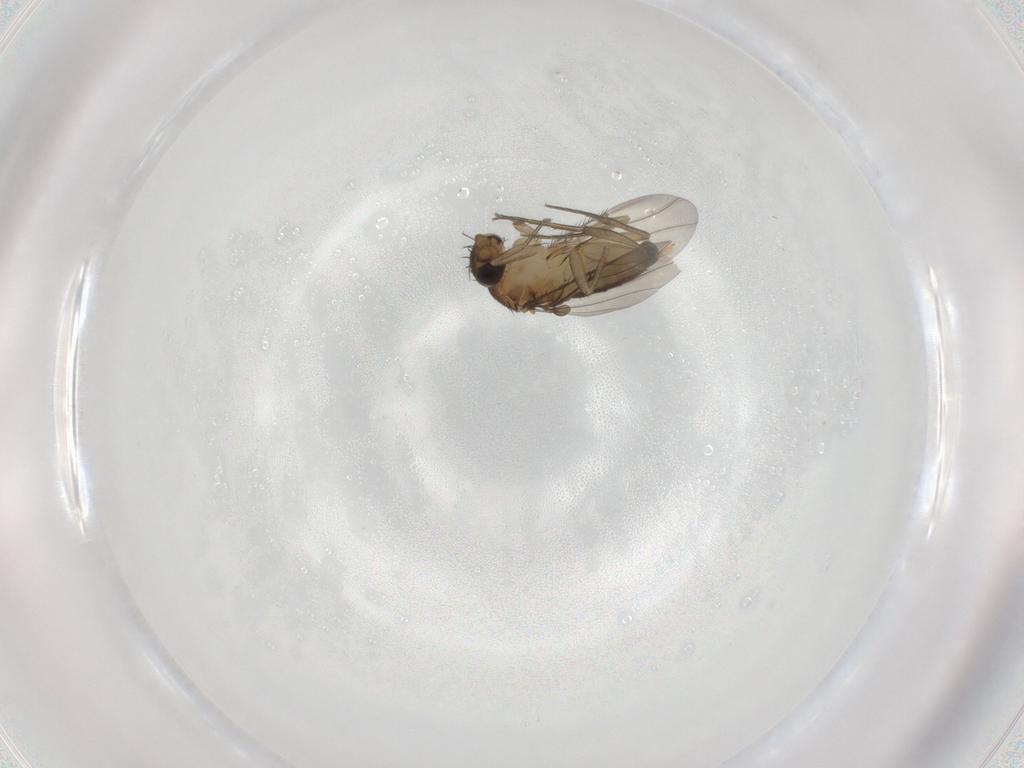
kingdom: Animalia
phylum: Arthropoda
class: Insecta
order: Diptera
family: Phoridae
